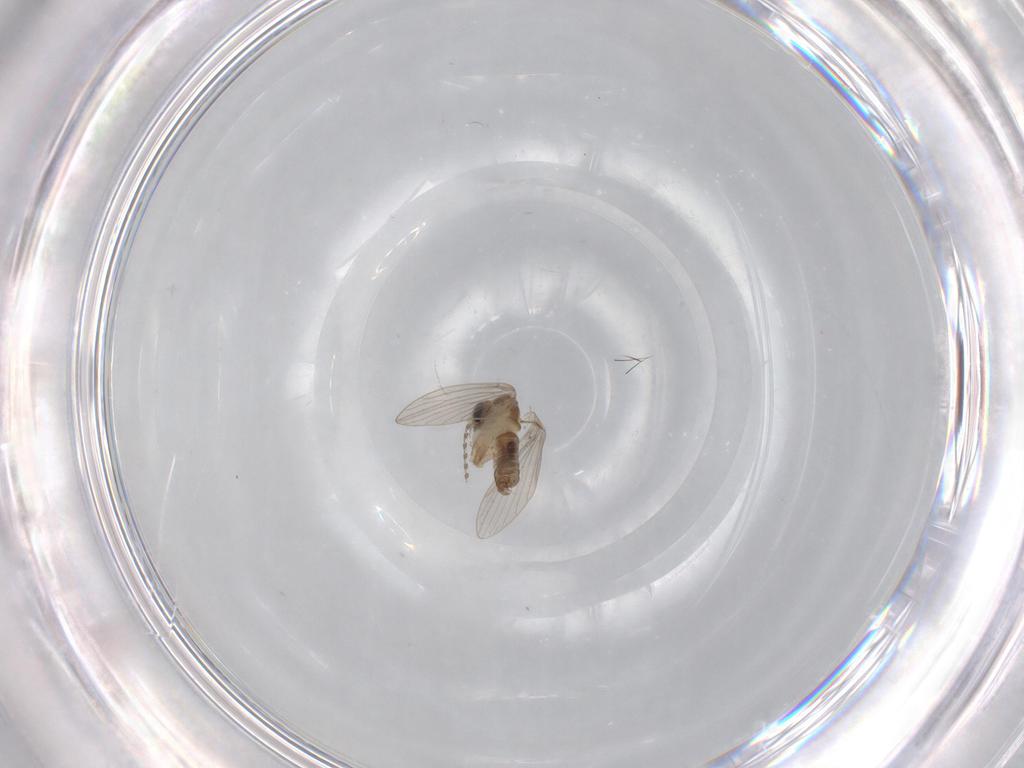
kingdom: Animalia
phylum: Arthropoda
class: Insecta
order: Diptera
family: Psychodidae
